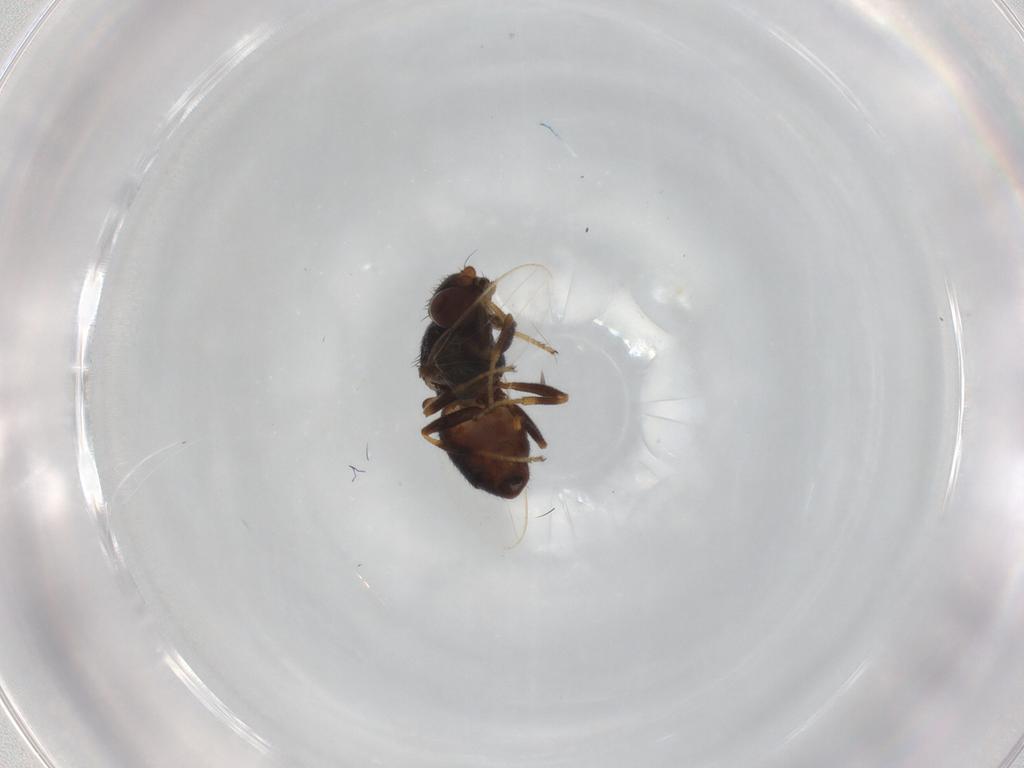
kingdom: Animalia
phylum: Arthropoda
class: Insecta
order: Diptera
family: Chloropidae
